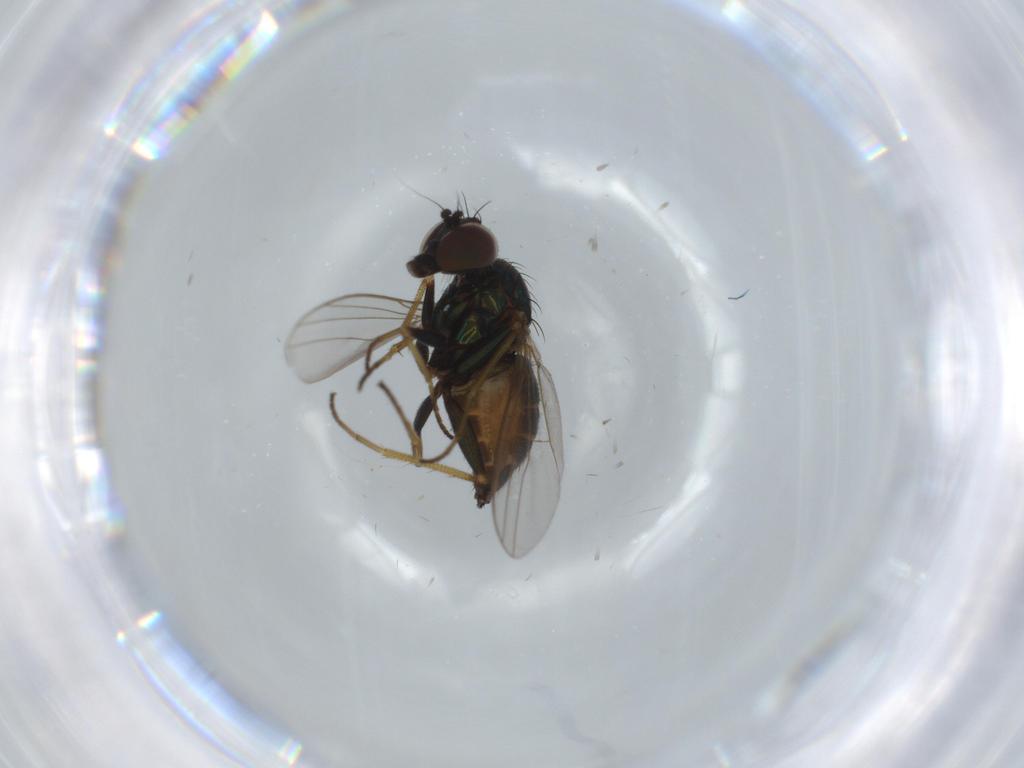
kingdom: Animalia
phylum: Arthropoda
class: Insecta
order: Diptera
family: Dolichopodidae
